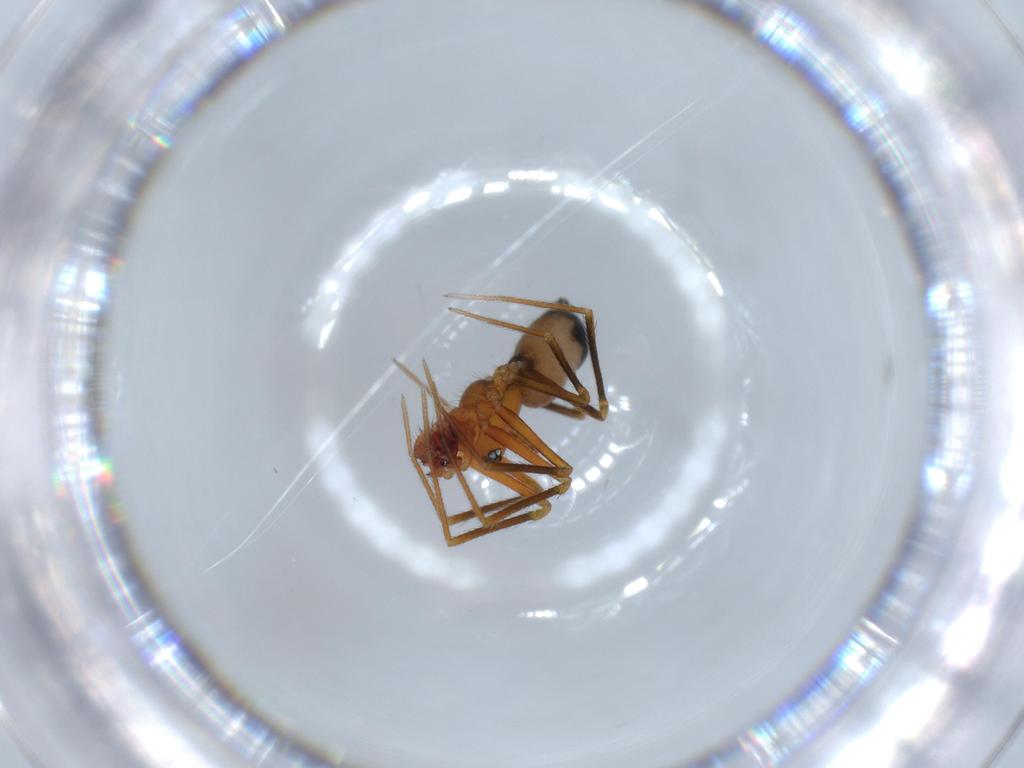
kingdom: Animalia
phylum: Arthropoda
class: Arachnida
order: Araneae
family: Linyphiidae
